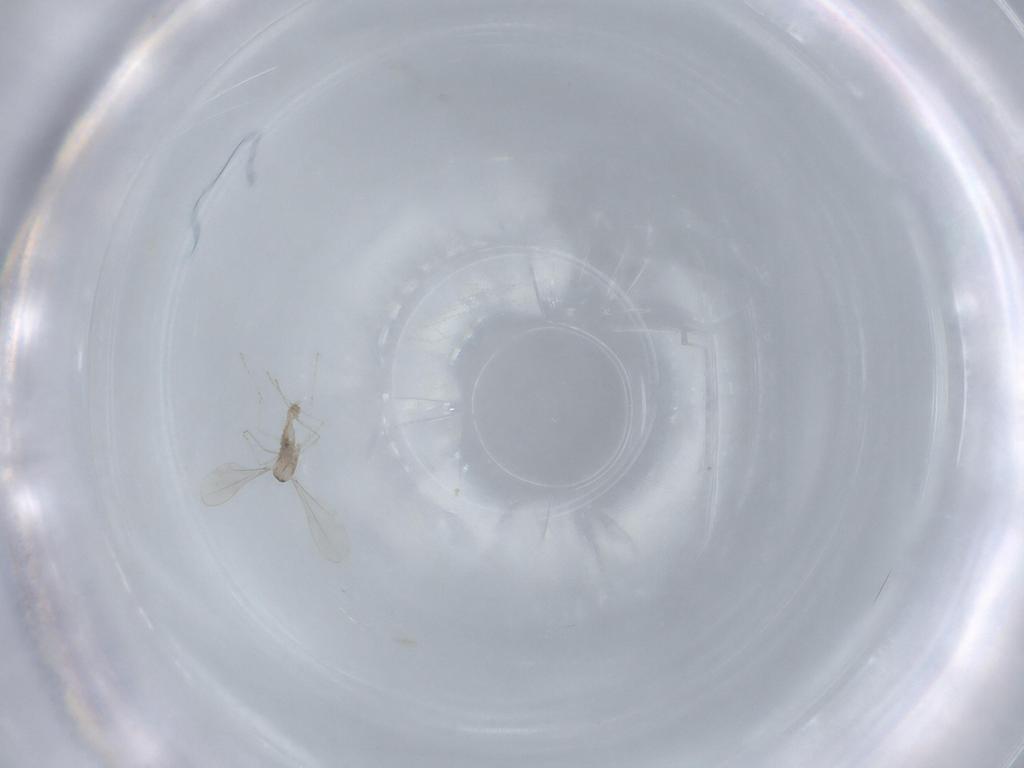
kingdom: Animalia
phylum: Arthropoda
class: Insecta
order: Diptera
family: Cecidomyiidae
